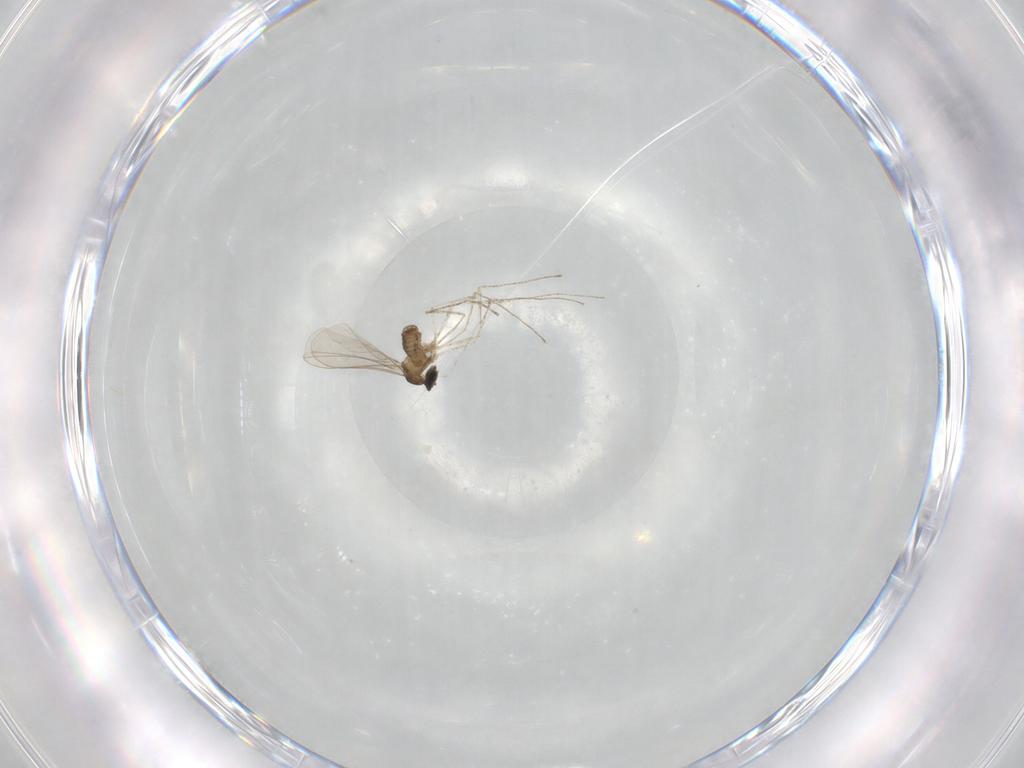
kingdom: Animalia
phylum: Arthropoda
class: Insecta
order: Diptera
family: Cecidomyiidae
